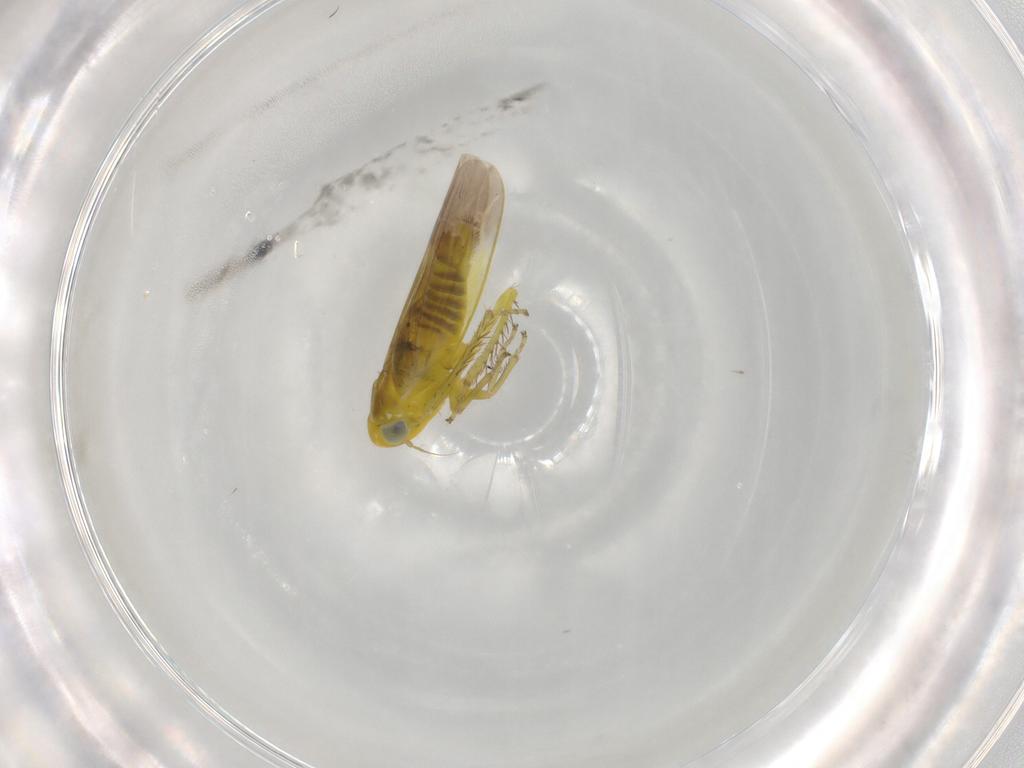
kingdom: Animalia
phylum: Arthropoda
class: Insecta
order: Hemiptera
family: Cicadellidae
